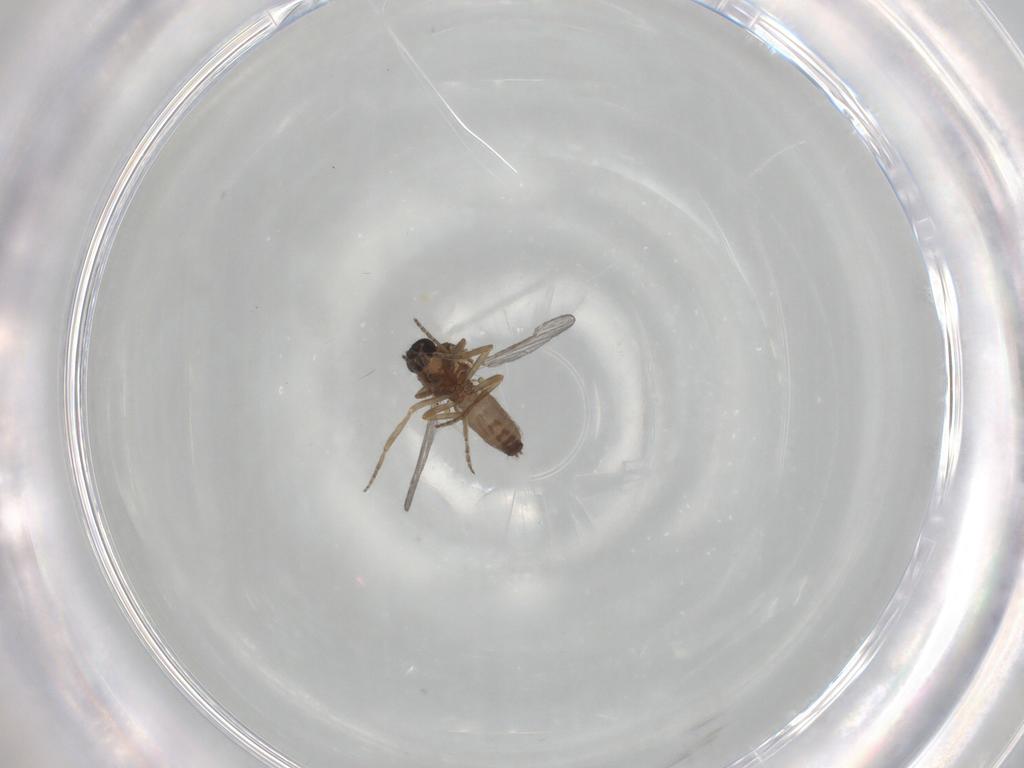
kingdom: Animalia
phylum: Arthropoda
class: Insecta
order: Diptera
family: Ceratopogonidae
